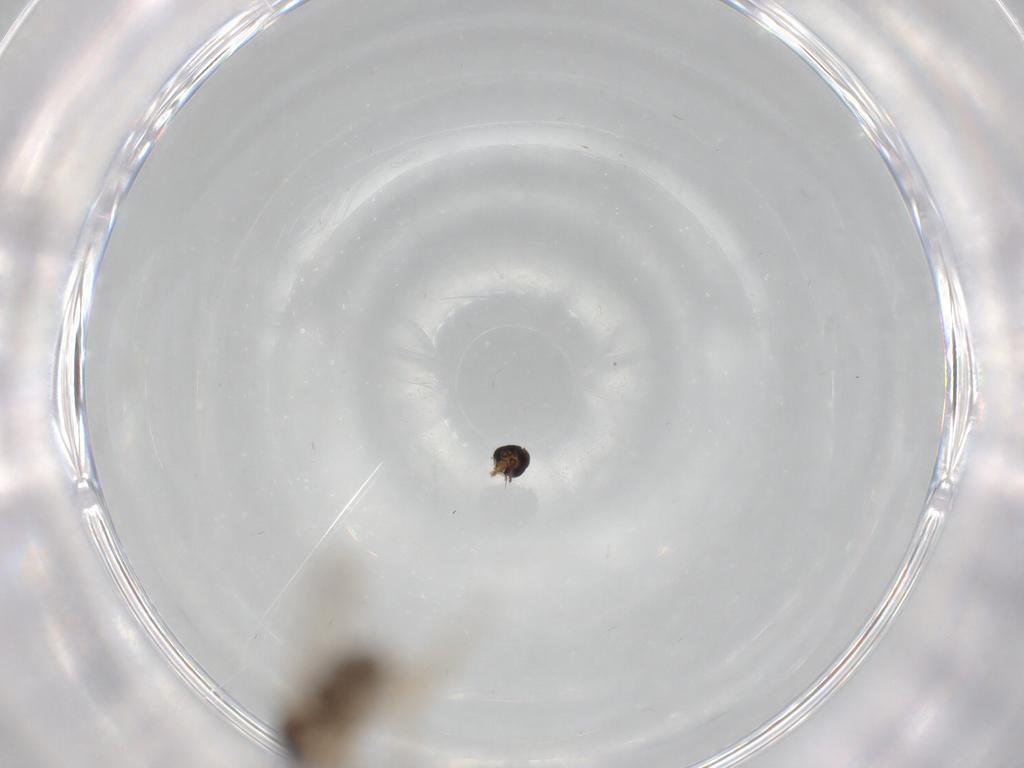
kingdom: Animalia
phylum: Arthropoda
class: Insecta
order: Diptera
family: Ceratopogonidae
